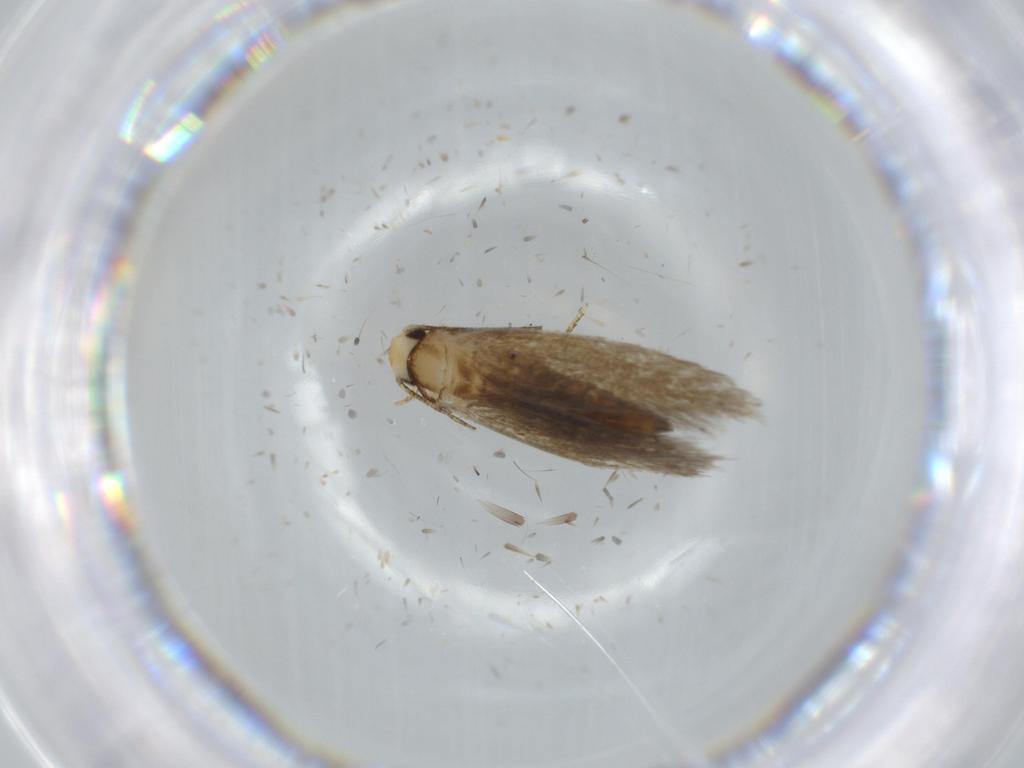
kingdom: Animalia
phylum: Arthropoda
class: Insecta
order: Lepidoptera
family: Tineidae
